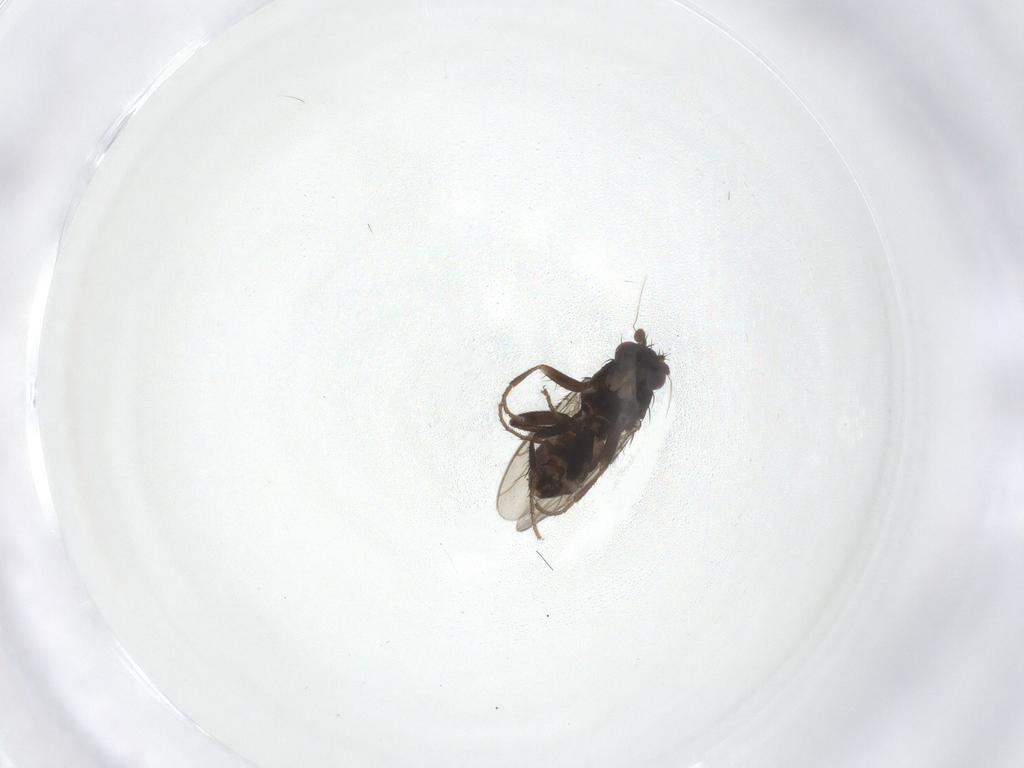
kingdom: Animalia
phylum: Arthropoda
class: Insecta
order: Diptera
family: Sphaeroceridae
